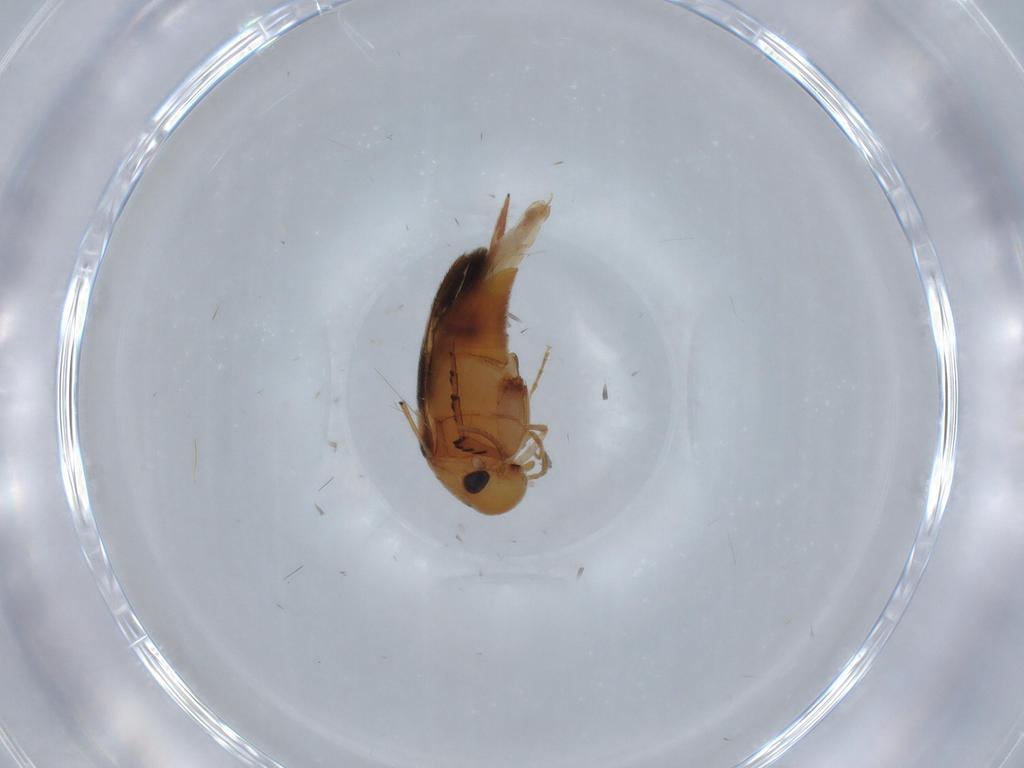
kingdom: Animalia
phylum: Arthropoda
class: Insecta
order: Coleoptera
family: Mordellidae
